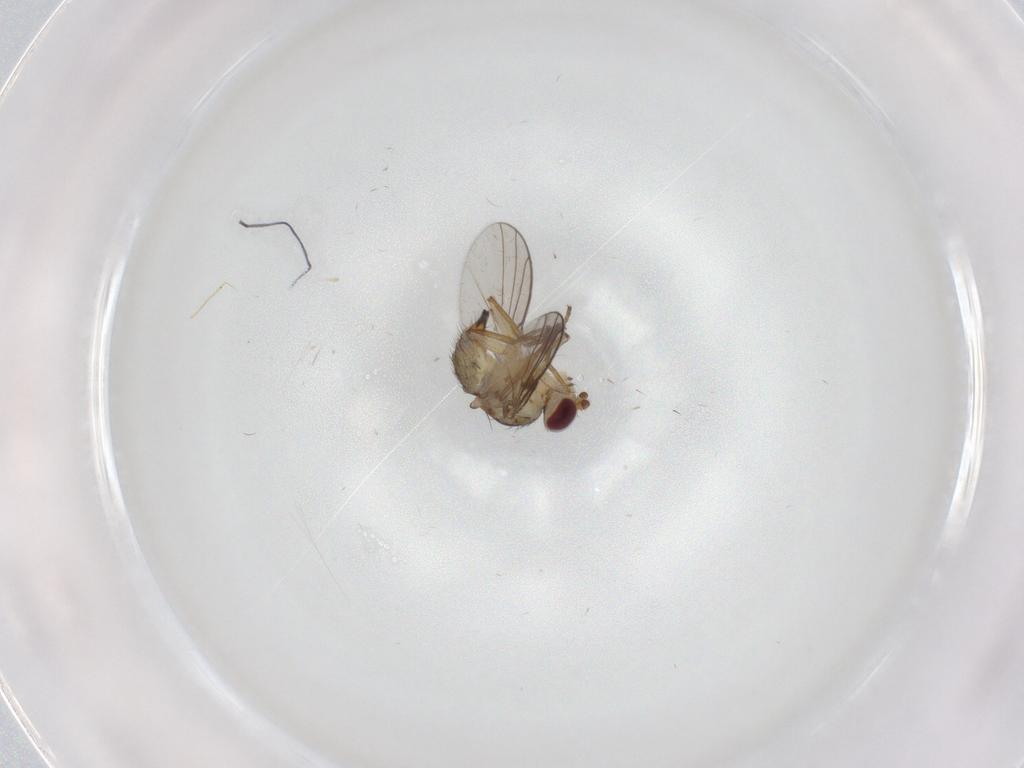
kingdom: Animalia
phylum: Arthropoda
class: Insecta
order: Diptera
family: Agromyzidae
